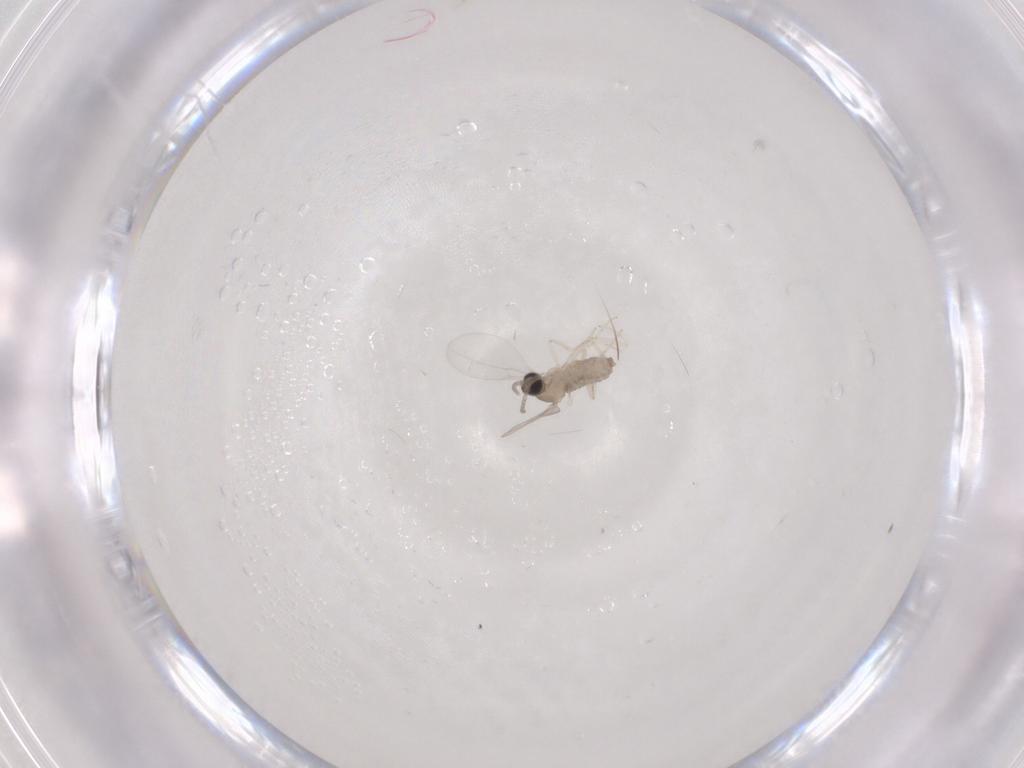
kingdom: Animalia
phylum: Arthropoda
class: Insecta
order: Diptera
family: Cecidomyiidae
